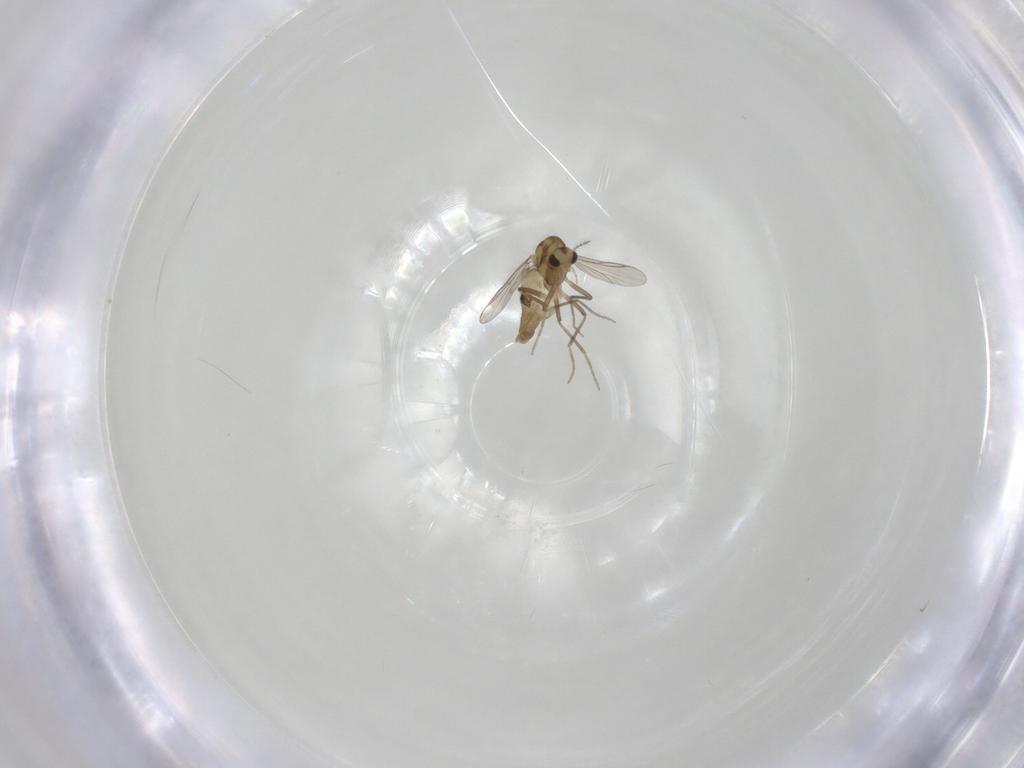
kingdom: Animalia
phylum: Arthropoda
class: Insecta
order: Diptera
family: Chironomidae
